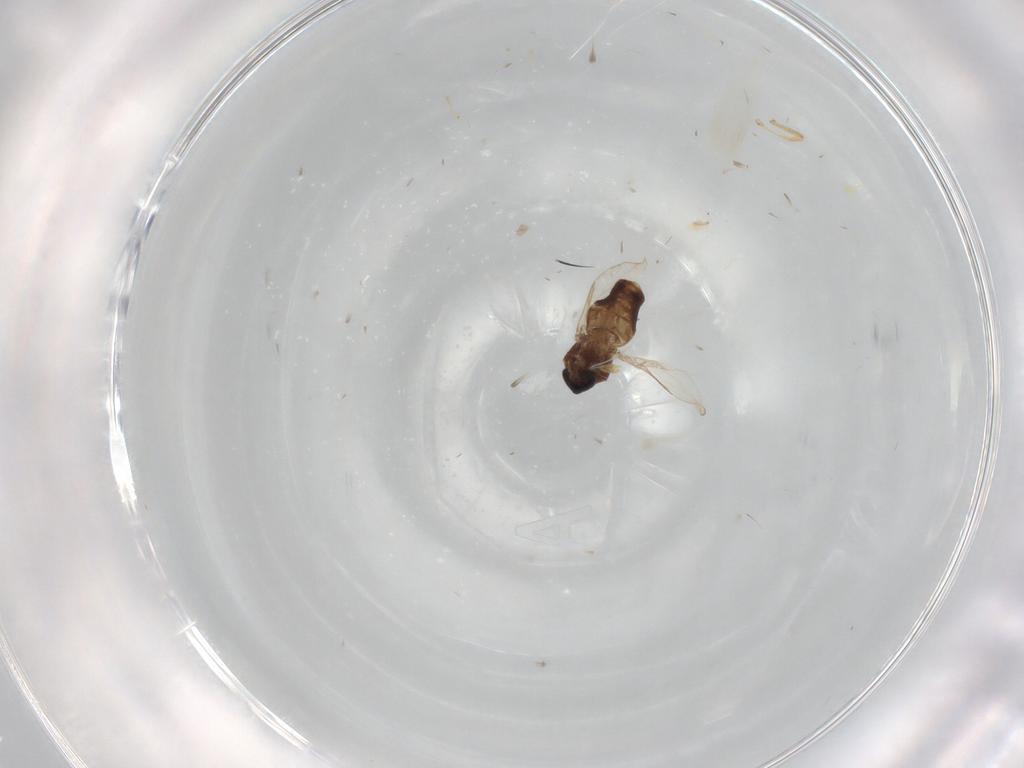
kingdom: Animalia
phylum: Arthropoda
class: Insecta
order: Diptera
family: Ceratopogonidae
